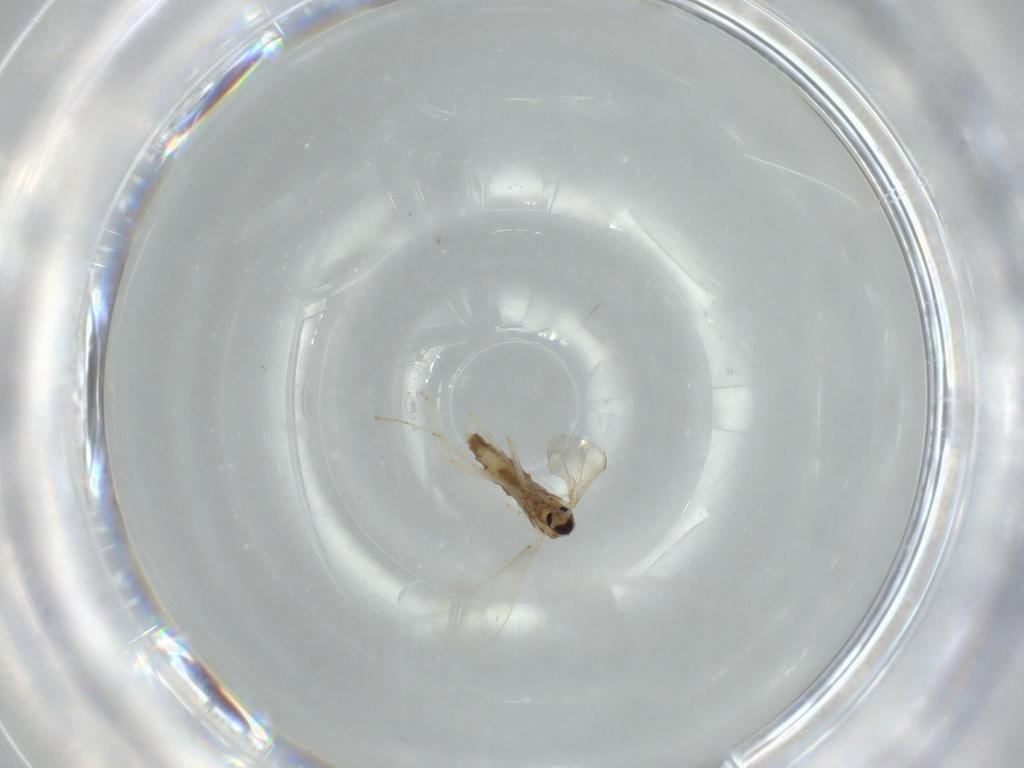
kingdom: Animalia
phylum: Arthropoda
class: Insecta
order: Diptera
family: Cecidomyiidae
